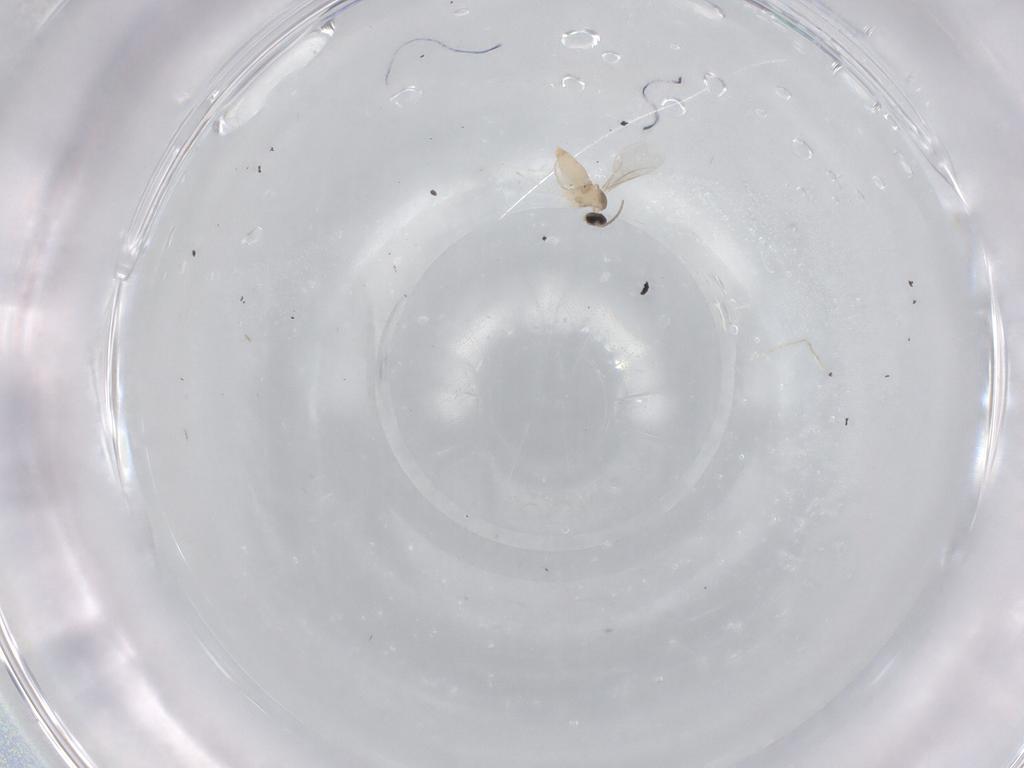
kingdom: Animalia
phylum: Arthropoda
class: Insecta
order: Diptera
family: Cecidomyiidae
